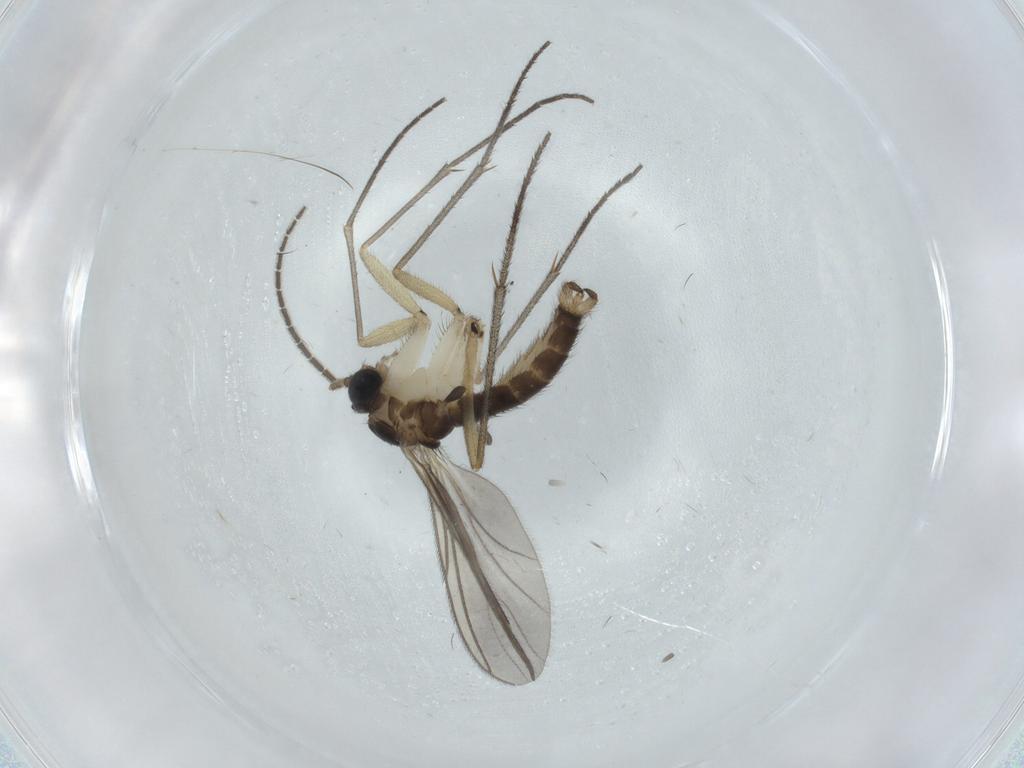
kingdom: Animalia
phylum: Arthropoda
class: Insecta
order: Diptera
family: Sciaridae
